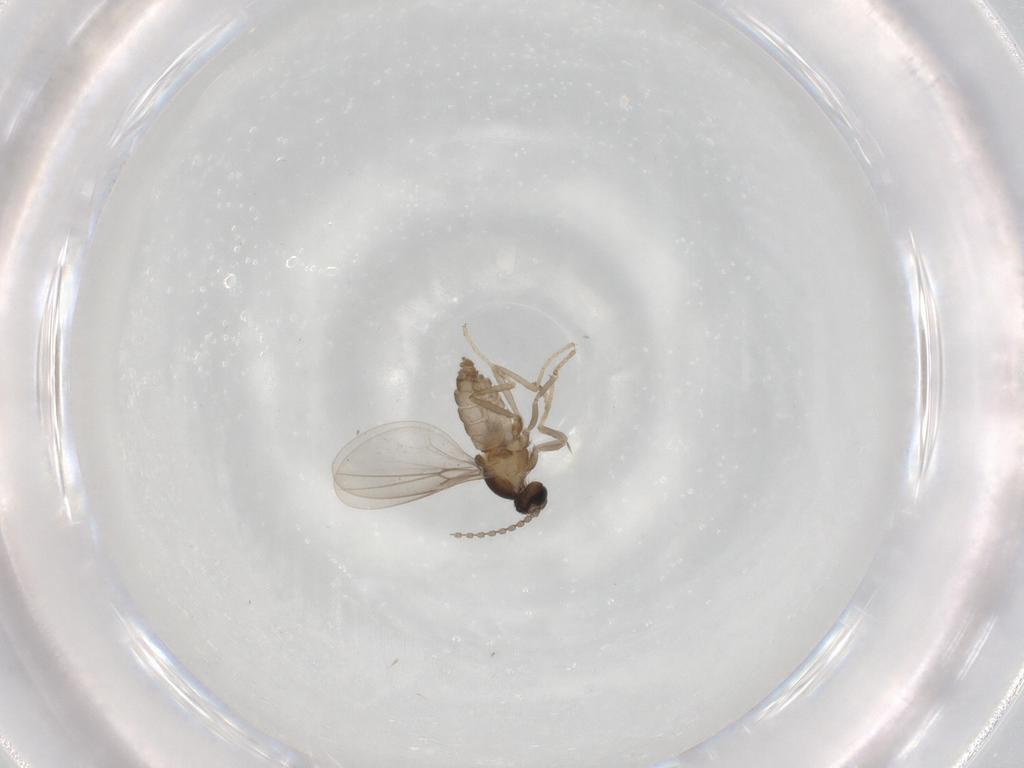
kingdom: Animalia
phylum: Arthropoda
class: Insecta
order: Diptera
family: Cecidomyiidae
